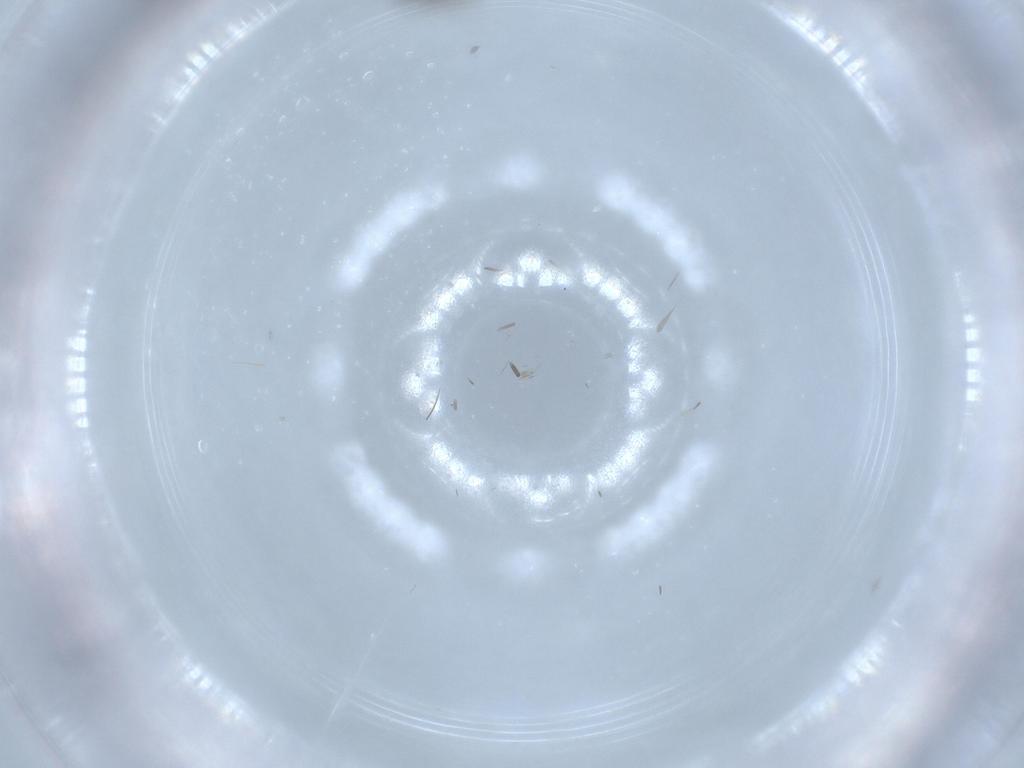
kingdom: Animalia
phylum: Arthropoda
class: Insecta
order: Diptera
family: Ceratopogonidae
